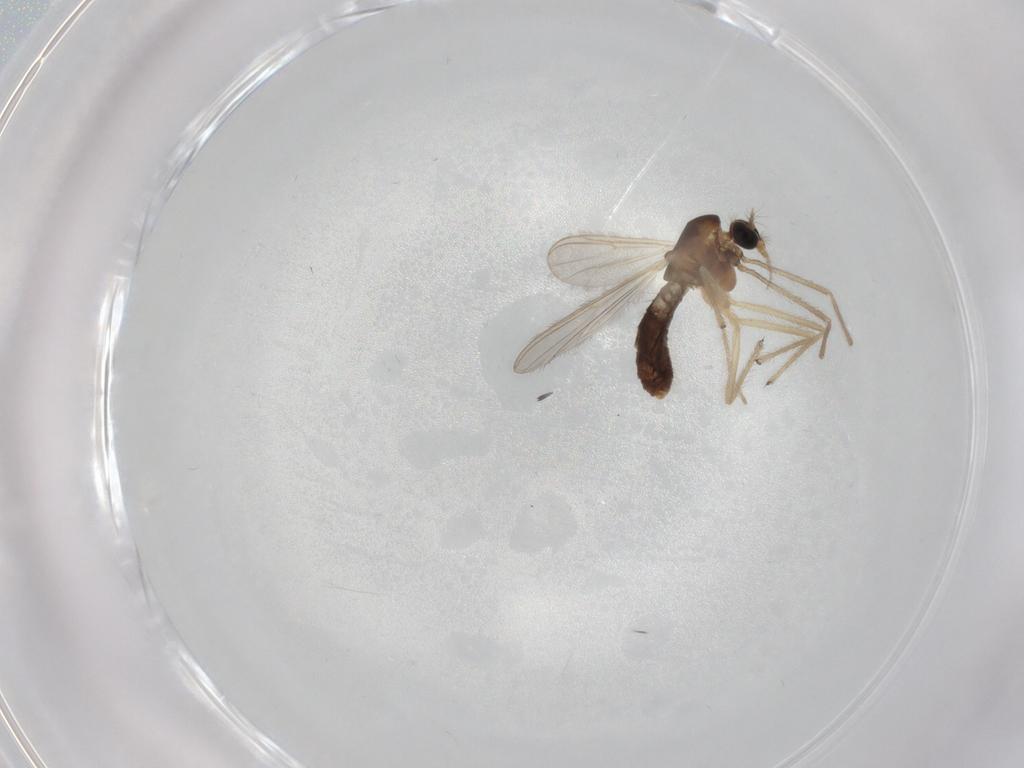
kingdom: Animalia
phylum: Arthropoda
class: Insecta
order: Diptera
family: Chironomidae
